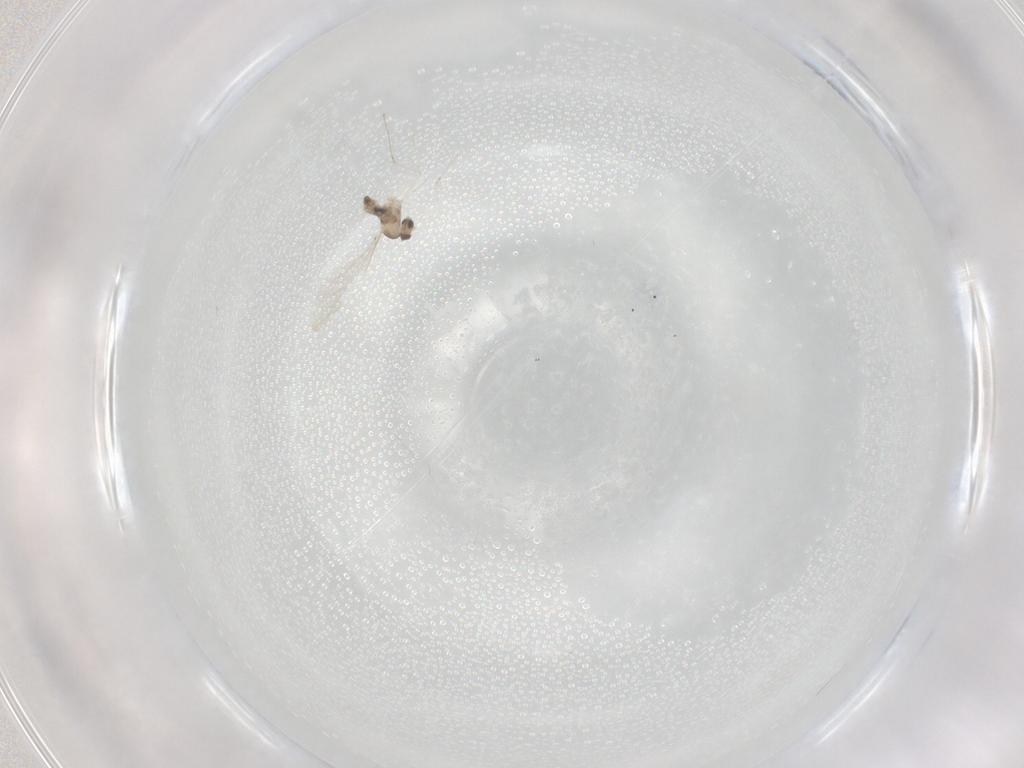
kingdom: Animalia
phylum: Arthropoda
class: Insecta
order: Diptera
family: Cecidomyiidae
